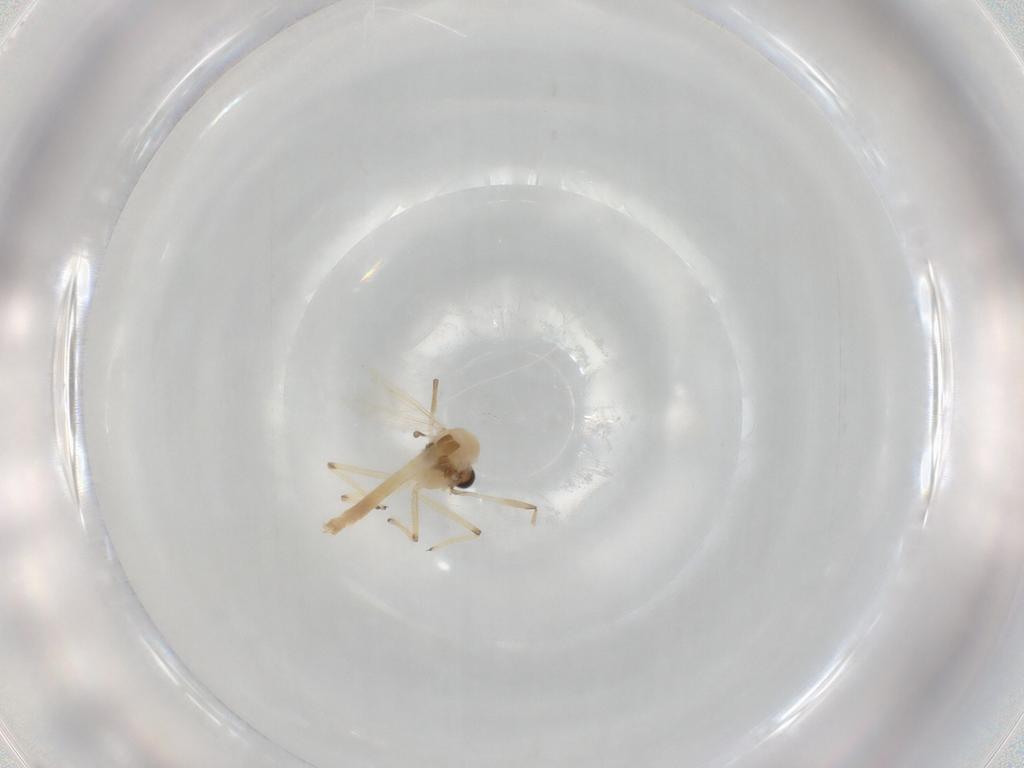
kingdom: Animalia
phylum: Arthropoda
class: Insecta
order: Diptera
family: Chironomidae
